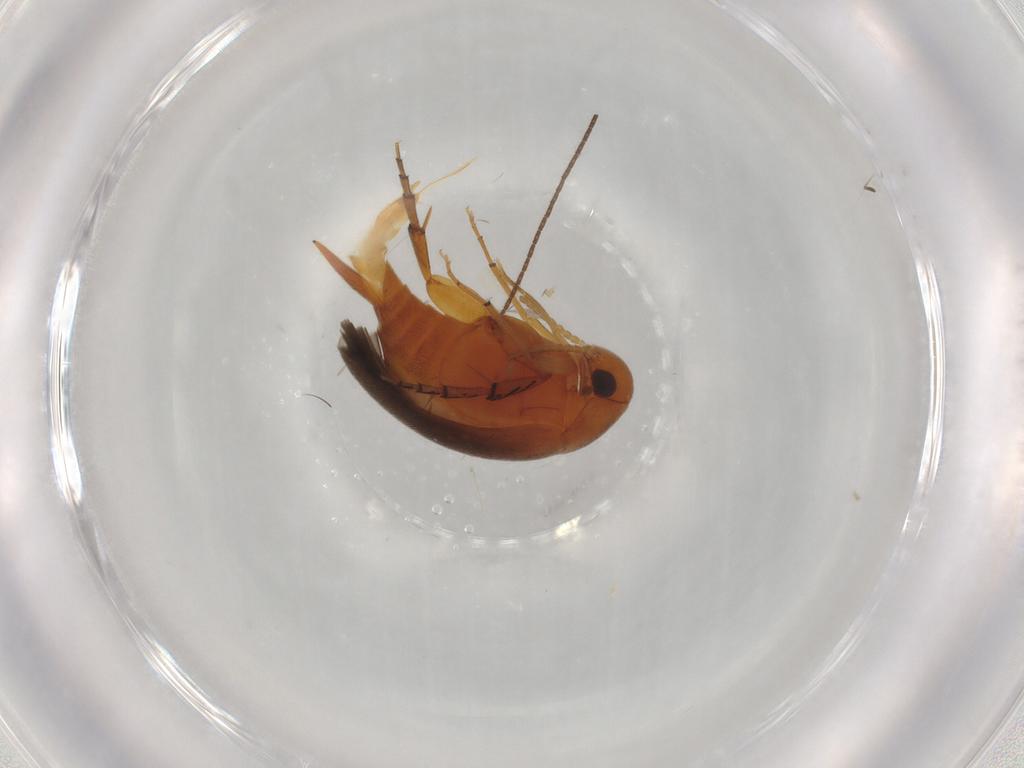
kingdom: Animalia
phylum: Arthropoda
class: Insecta
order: Coleoptera
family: Mordellidae
